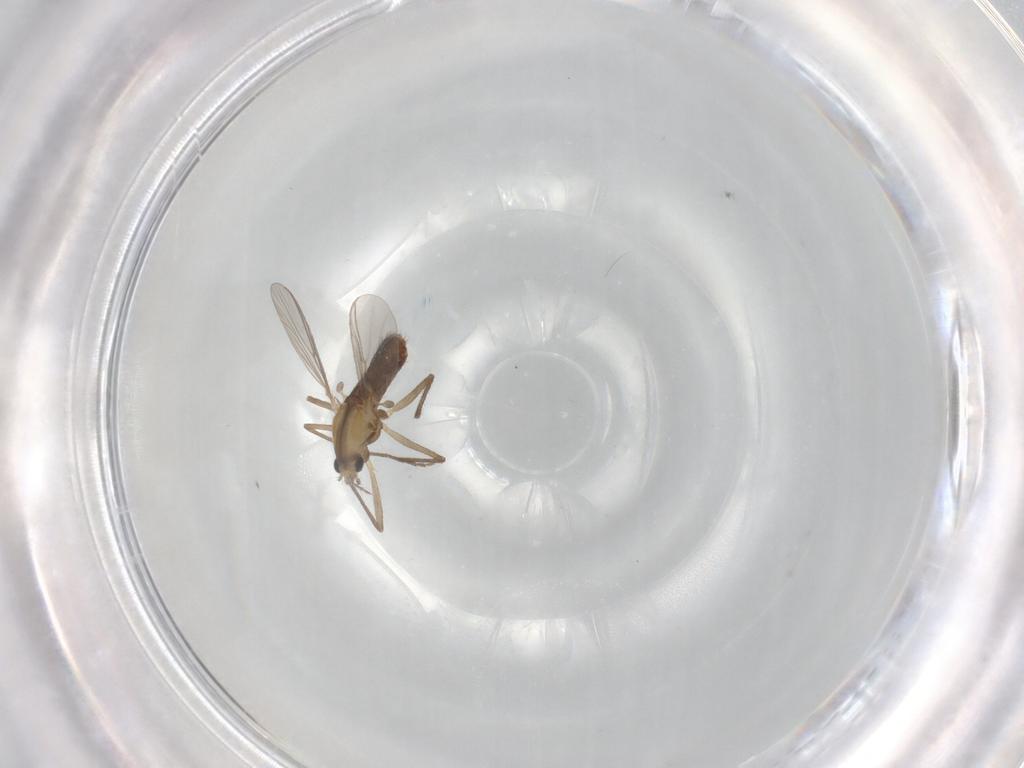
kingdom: Animalia
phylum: Arthropoda
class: Insecta
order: Diptera
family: Chironomidae
